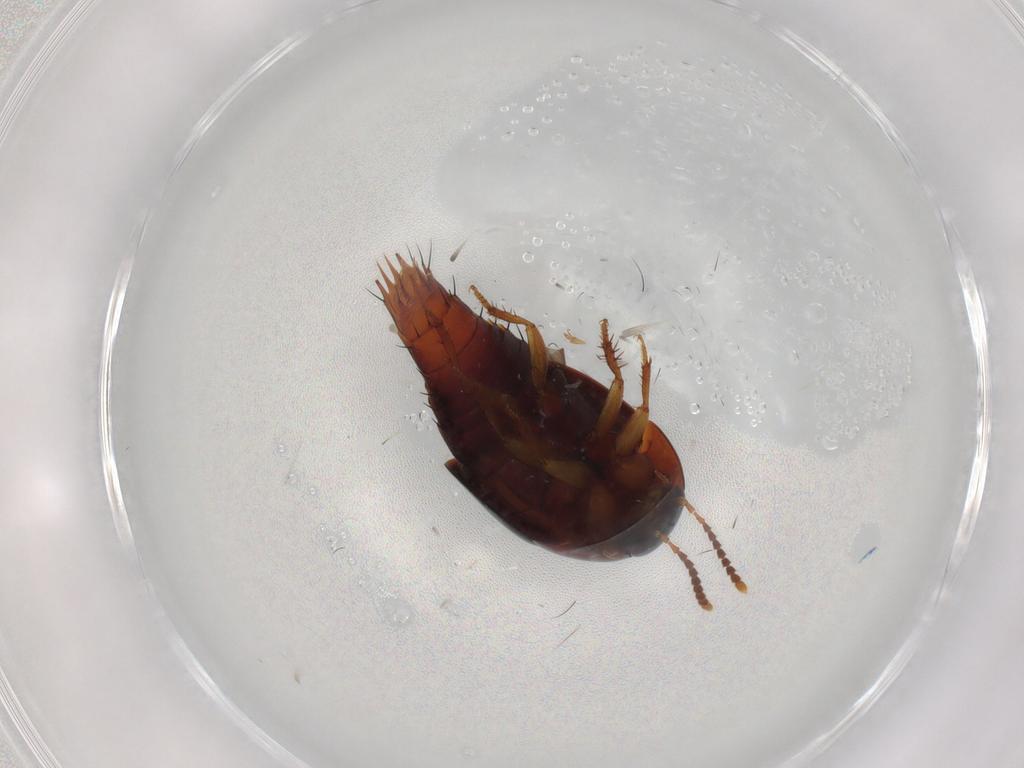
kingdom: Animalia
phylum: Arthropoda
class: Insecta
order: Coleoptera
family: Staphylinidae
